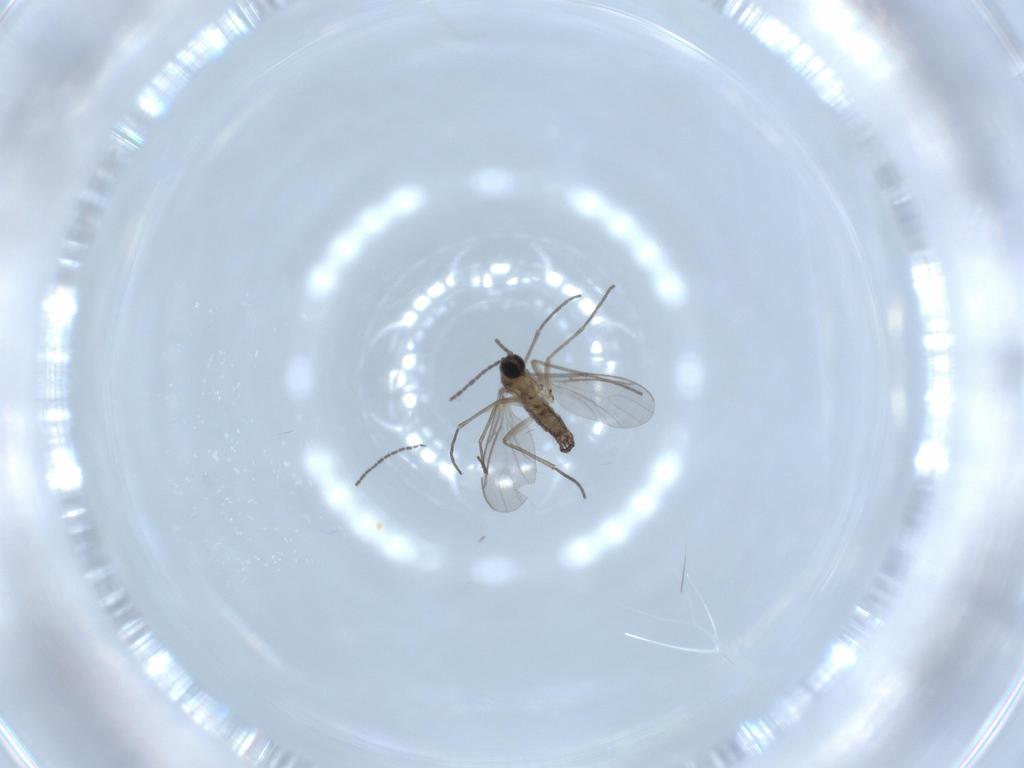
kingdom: Animalia
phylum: Arthropoda
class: Insecta
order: Diptera
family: Sciaridae
